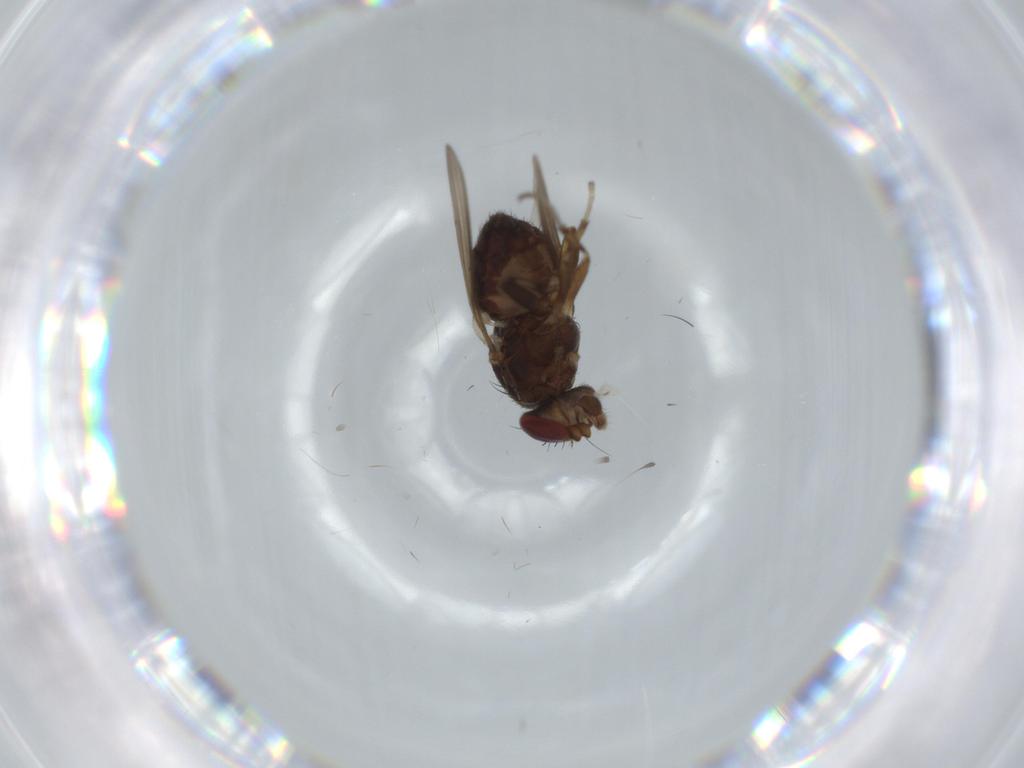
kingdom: Animalia
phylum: Arthropoda
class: Insecta
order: Diptera
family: Heleomyzidae
